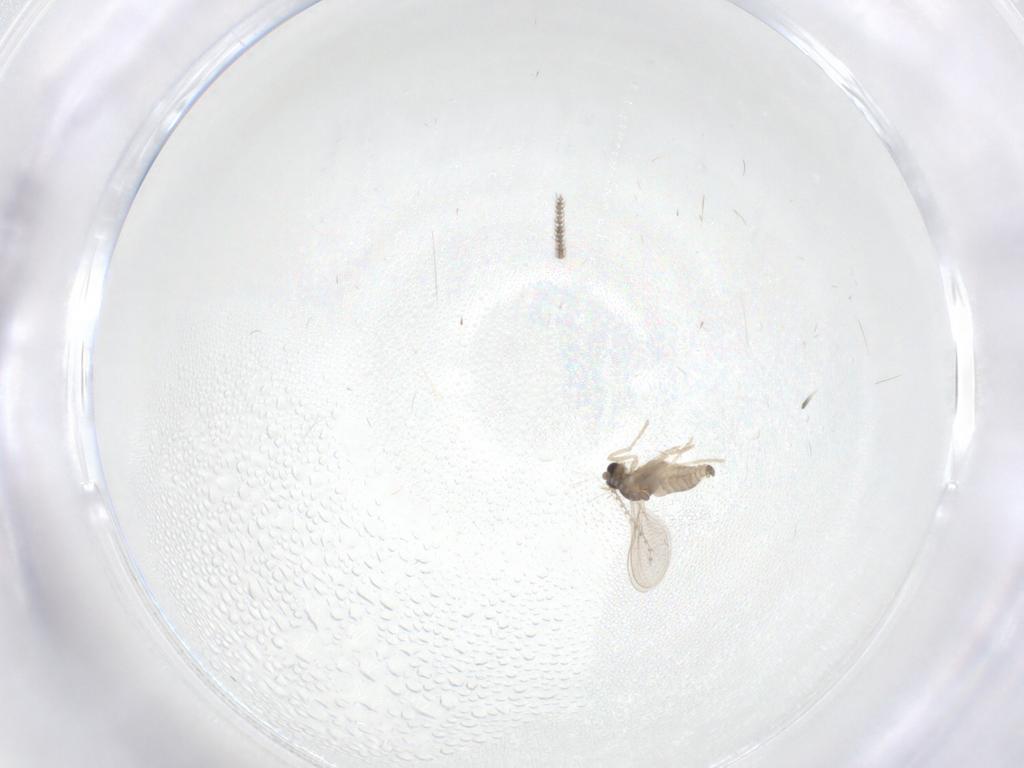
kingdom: Animalia
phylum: Arthropoda
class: Insecta
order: Diptera
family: Cecidomyiidae
